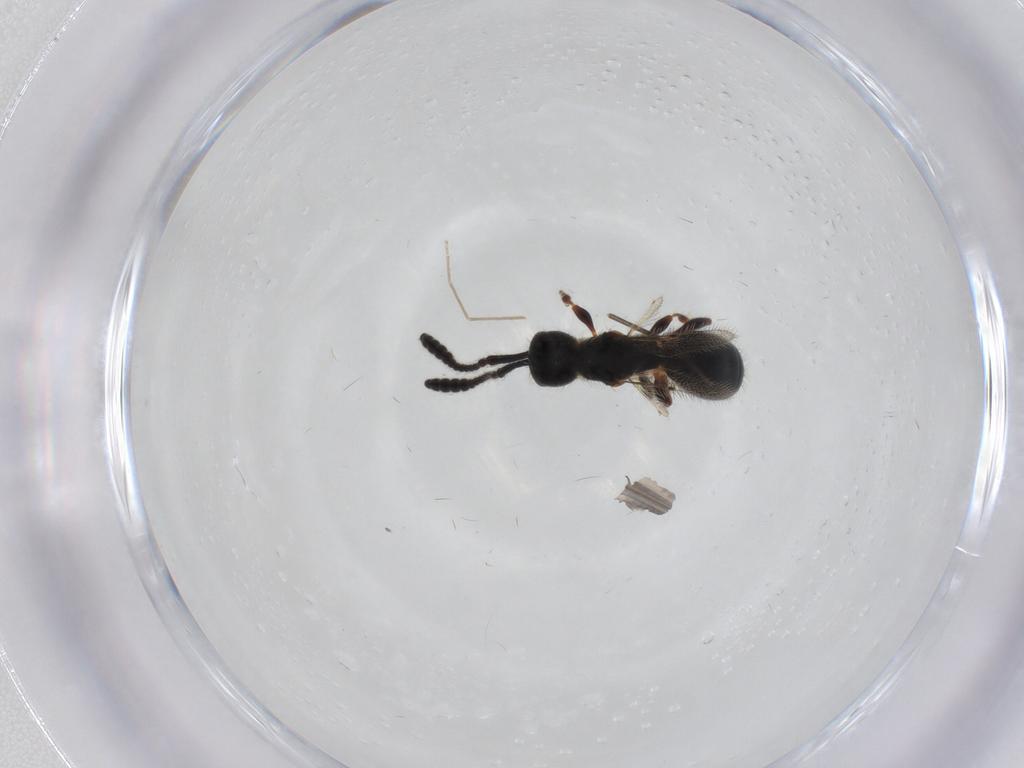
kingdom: Animalia
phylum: Arthropoda
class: Insecta
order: Hymenoptera
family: Diapriidae
